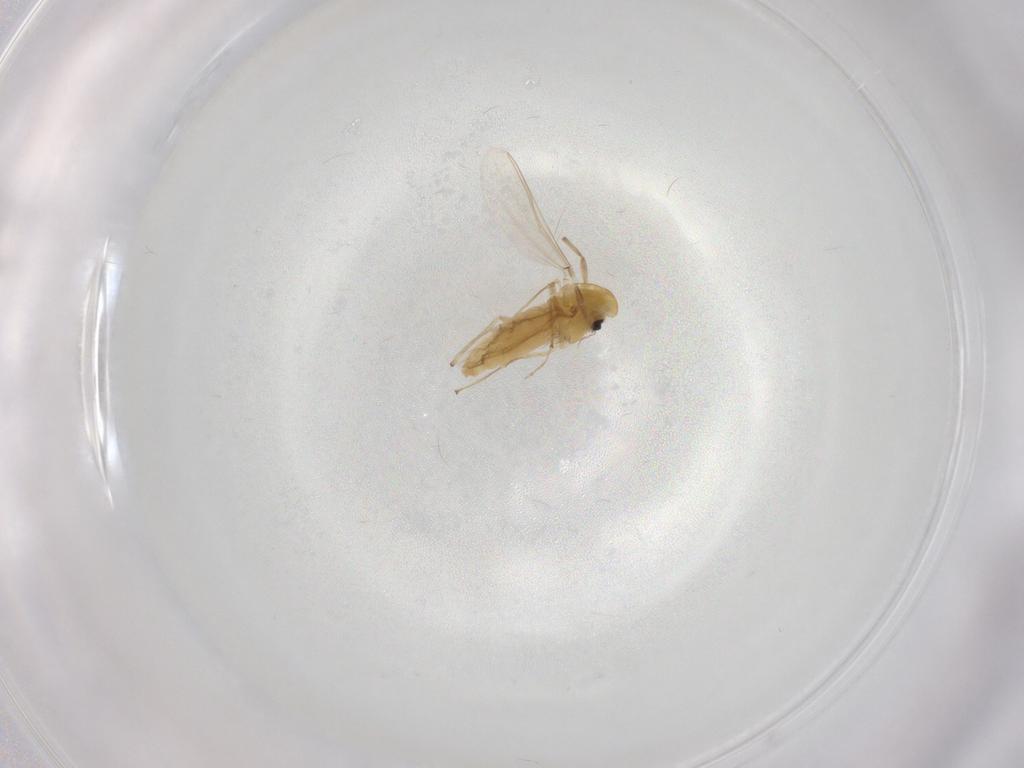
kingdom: Animalia
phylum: Arthropoda
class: Insecta
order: Diptera
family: Chironomidae
